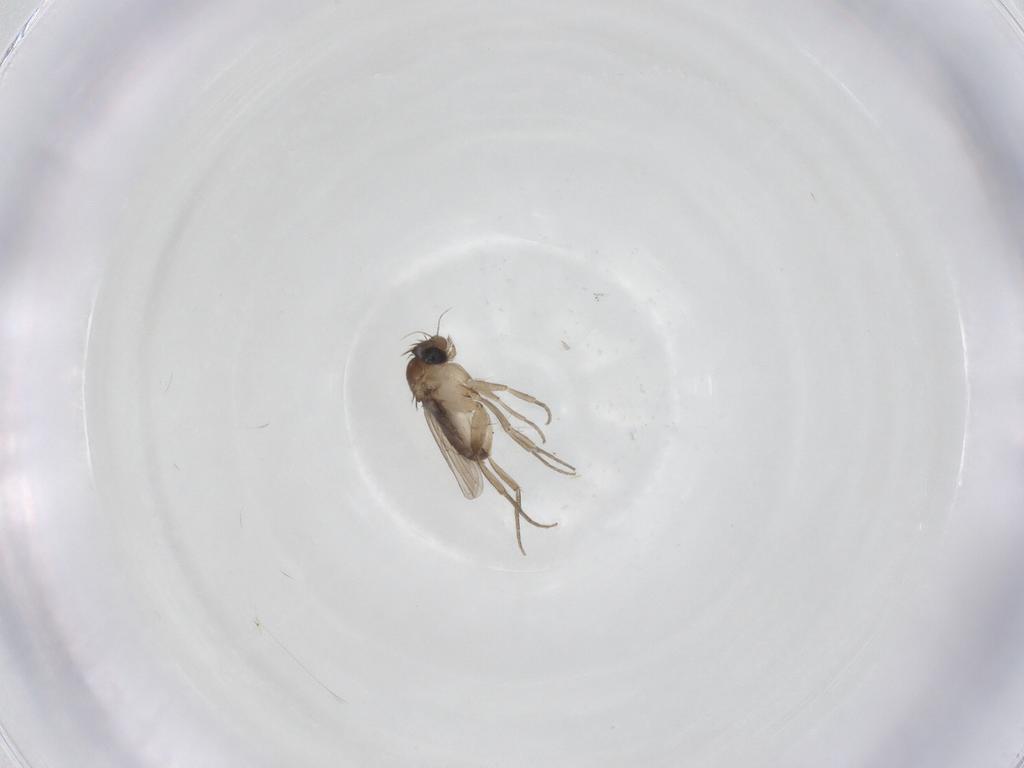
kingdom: Animalia
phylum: Arthropoda
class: Insecta
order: Diptera
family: Phoridae
